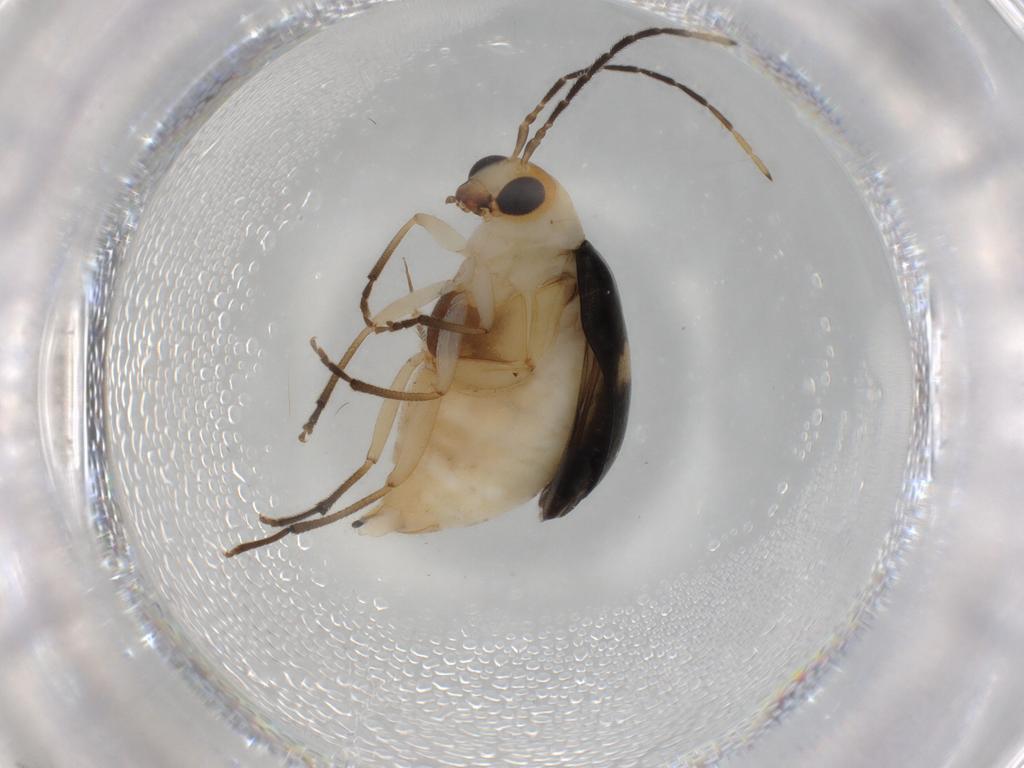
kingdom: Animalia
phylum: Arthropoda
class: Insecta
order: Coleoptera
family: Chrysomelidae
